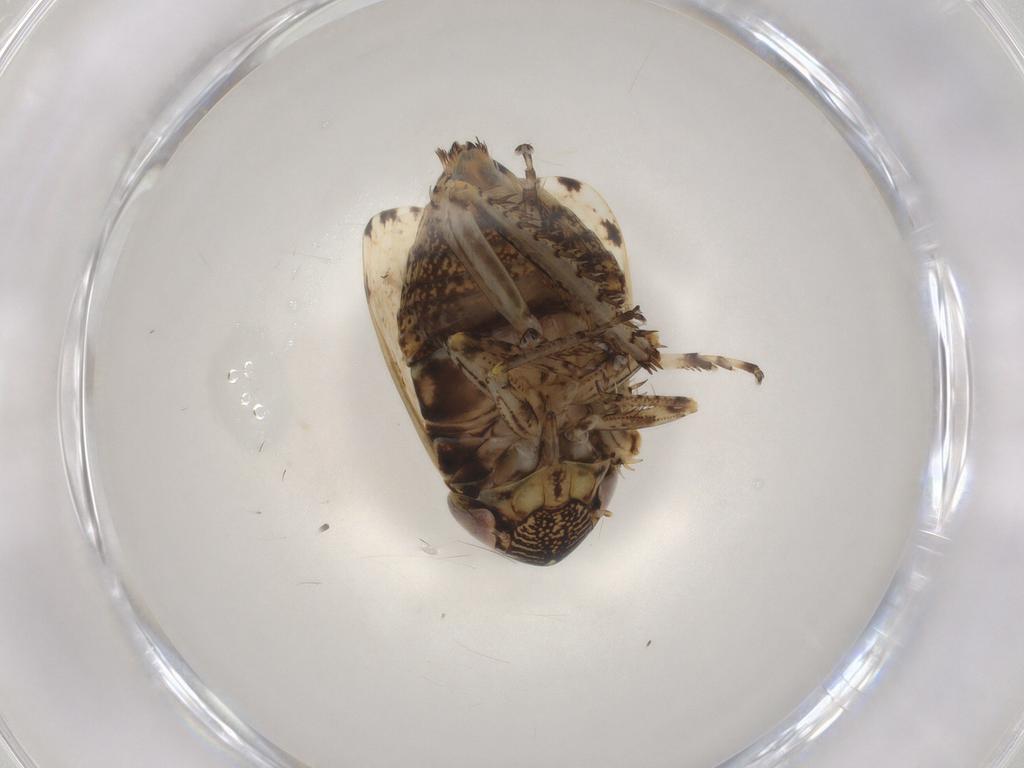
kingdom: Animalia
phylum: Arthropoda
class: Insecta
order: Hemiptera
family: Cicadellidae
